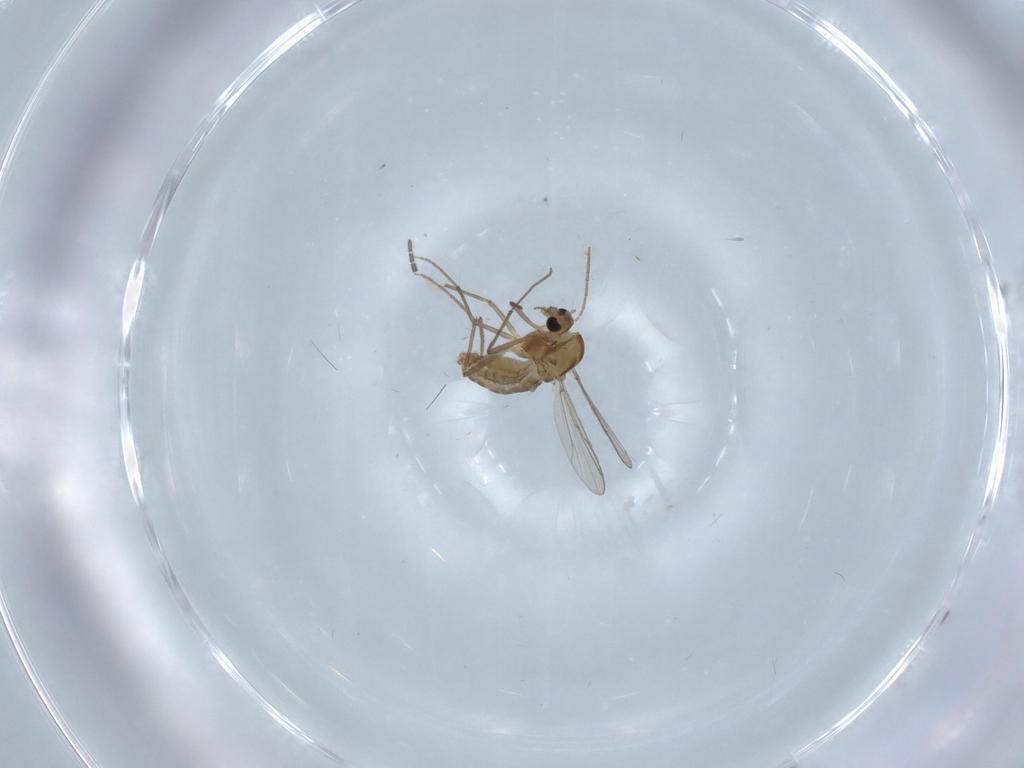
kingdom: Animalia
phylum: Arthropoda
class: Insecta
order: Diptera
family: Chironomidae
